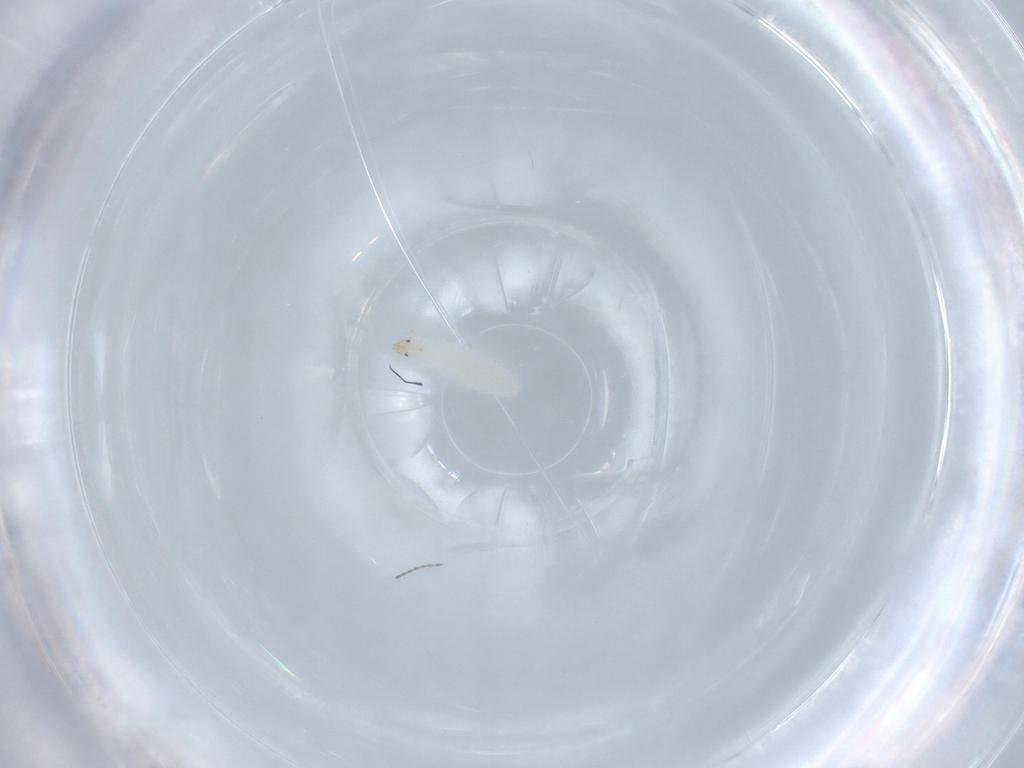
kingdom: Animalia
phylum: Arthropoda
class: Insecta
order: Diptera
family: Psychodidae
